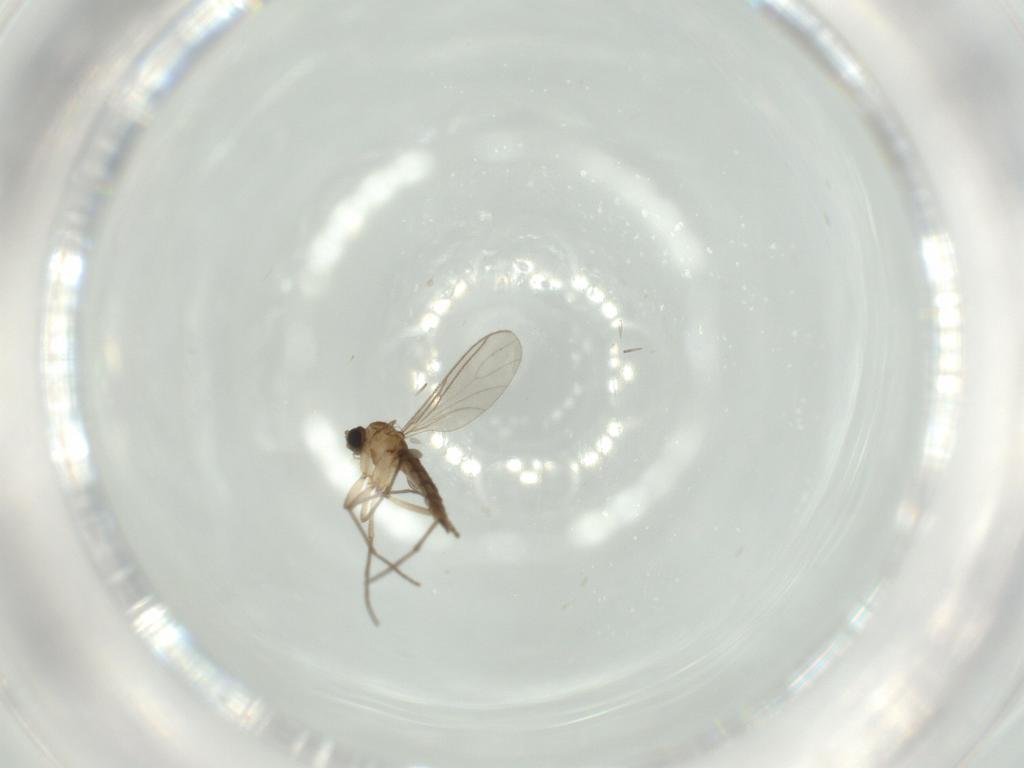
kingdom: Animalia
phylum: Arthropoda
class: Insecta
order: Diptera
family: Sciaridae
